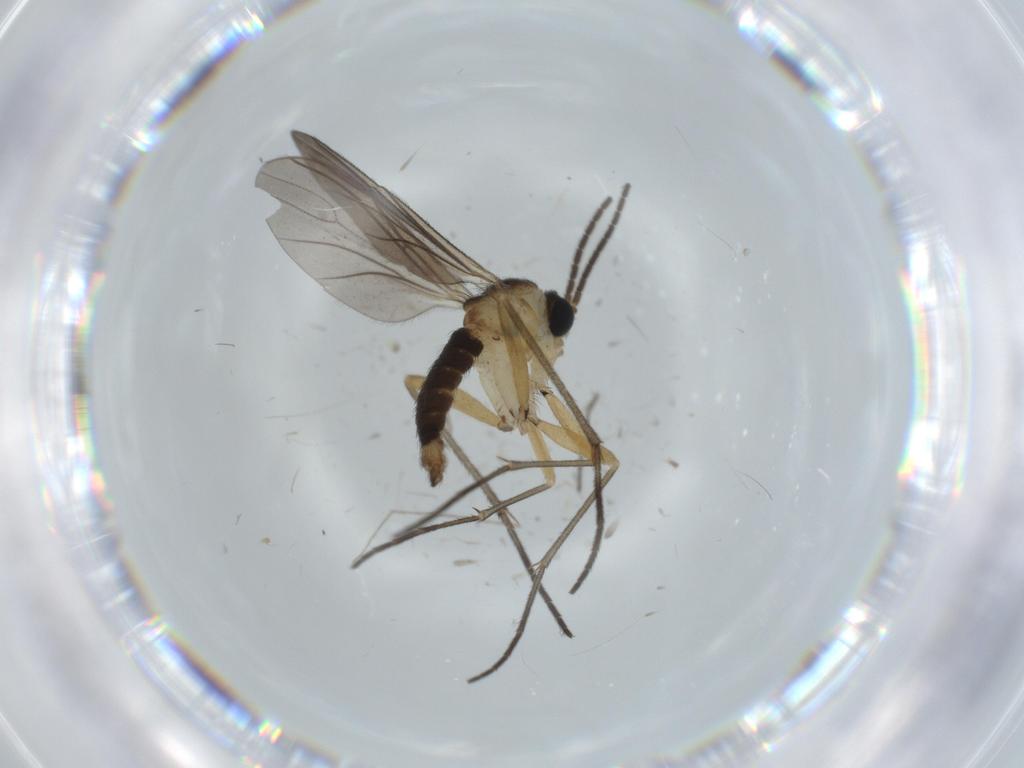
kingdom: Animalia
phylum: Arthropoda
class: Insecta
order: Diptera
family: Sciaridae
